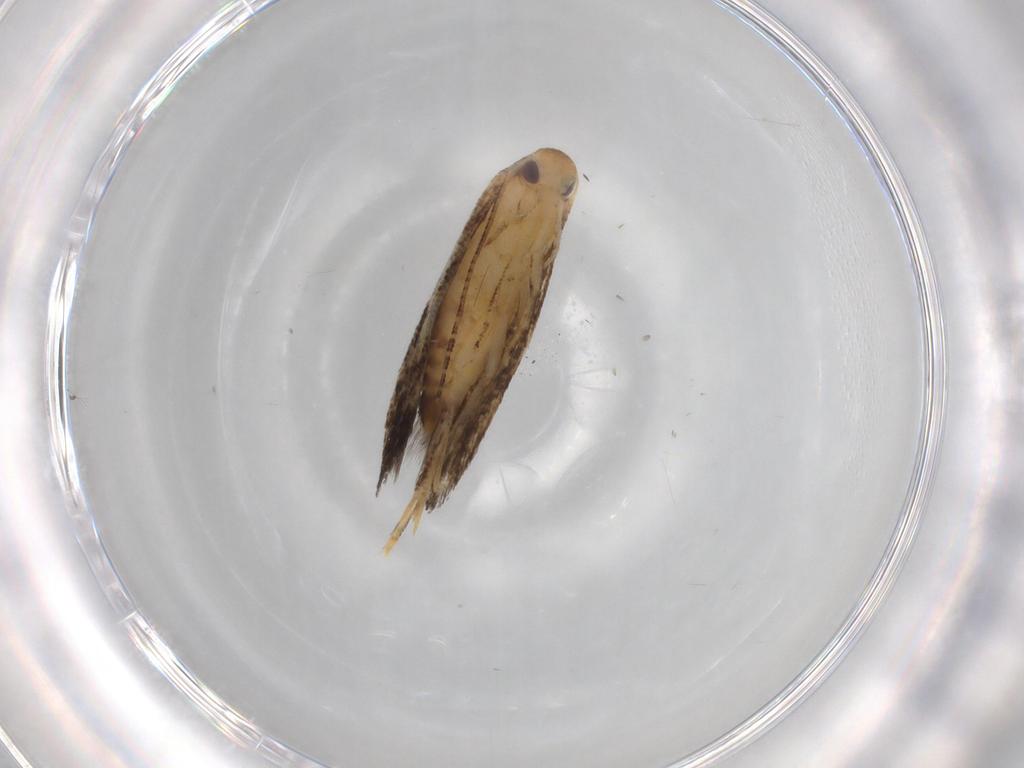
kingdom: Animalia
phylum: Arthropoda
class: Insecta
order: Lepidoptera
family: Momphidae
